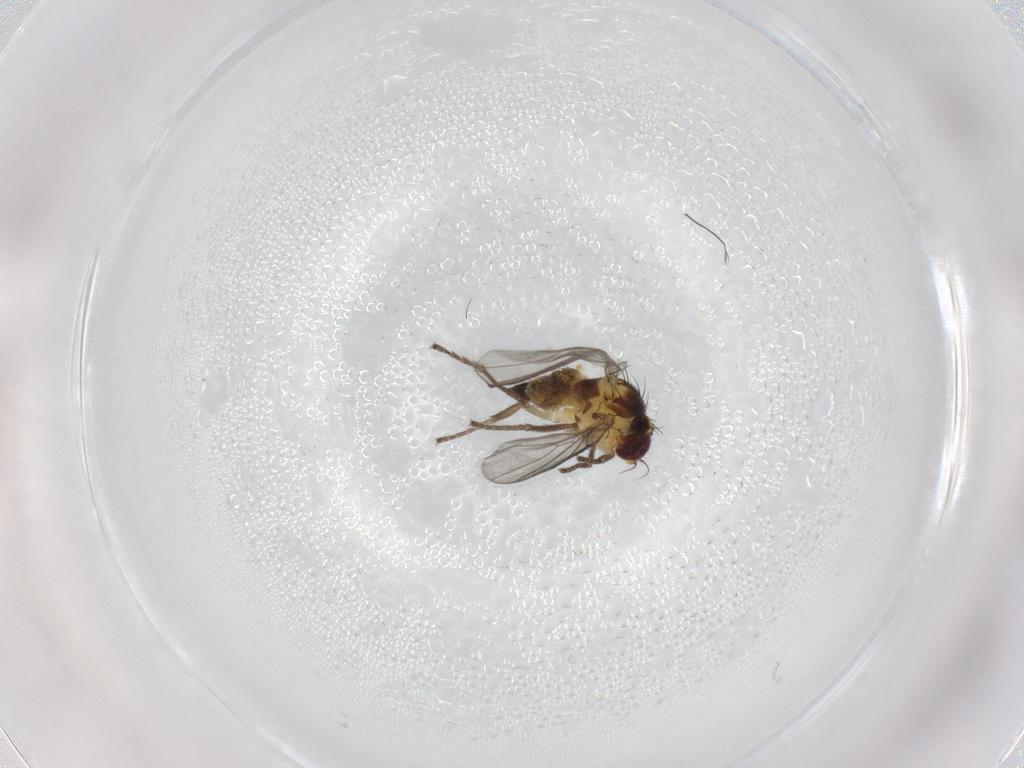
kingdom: Animalia
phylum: Arthropoda
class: Insecta
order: Diptera
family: Agromyzidae
